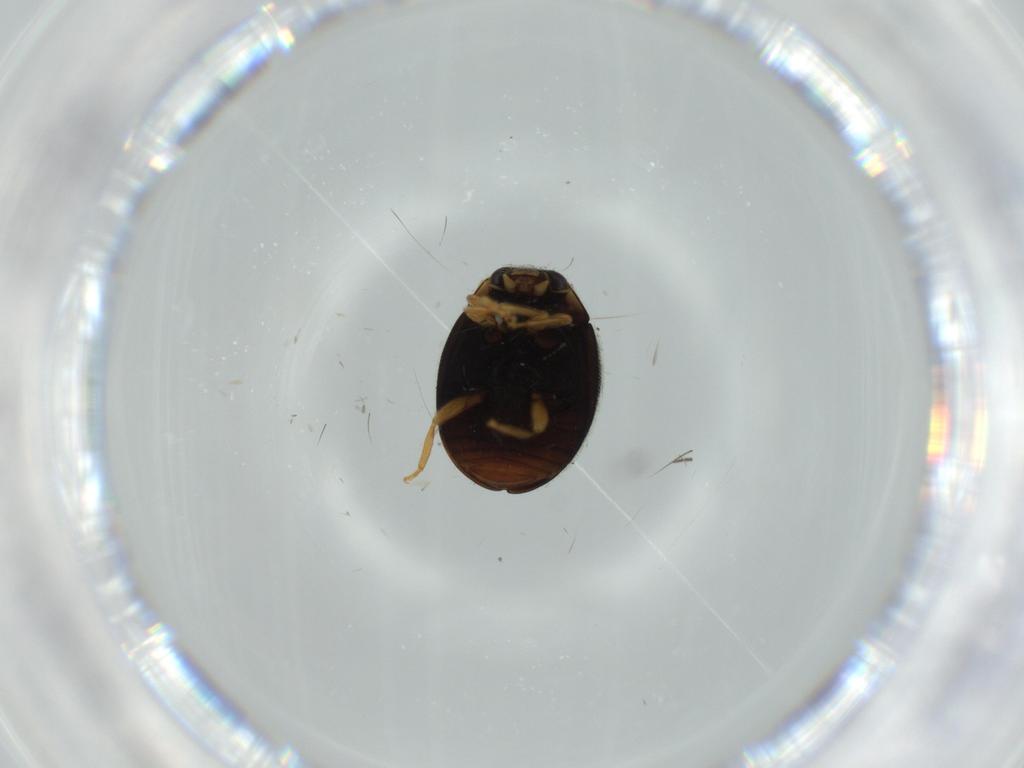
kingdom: Animalia
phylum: Arthropoda
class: Insecta
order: Coleoptera
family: Coccinellidae
